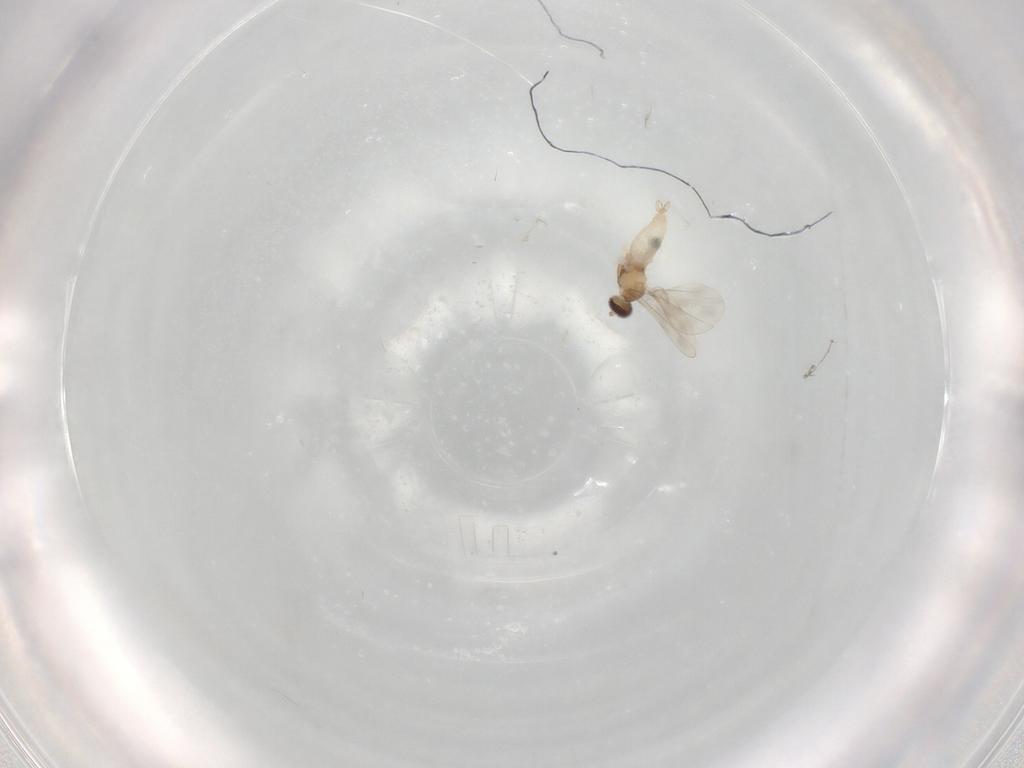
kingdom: Animalia
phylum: Arthropoda
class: Insecta
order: Diptera
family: Cecidomyiidae
